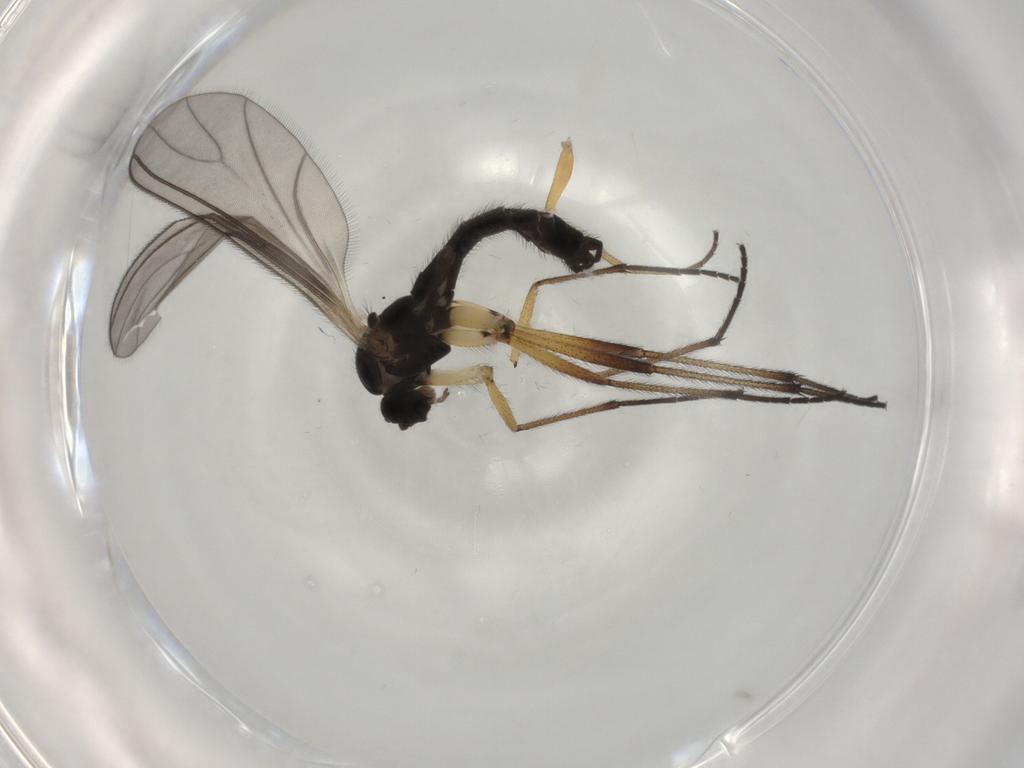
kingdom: Animalia
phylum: Arthropoda
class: Insecta
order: Diptera
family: Sciaridae
